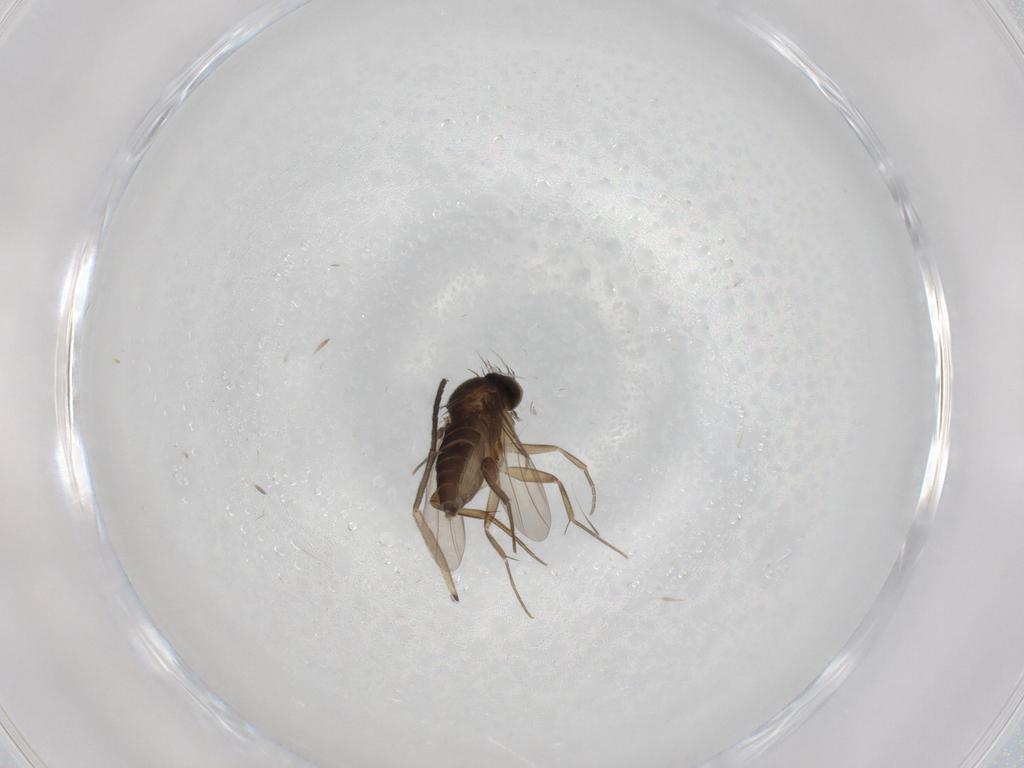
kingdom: Animalia
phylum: Arthropoda
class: Insecta
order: Diptera
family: Phoridae
